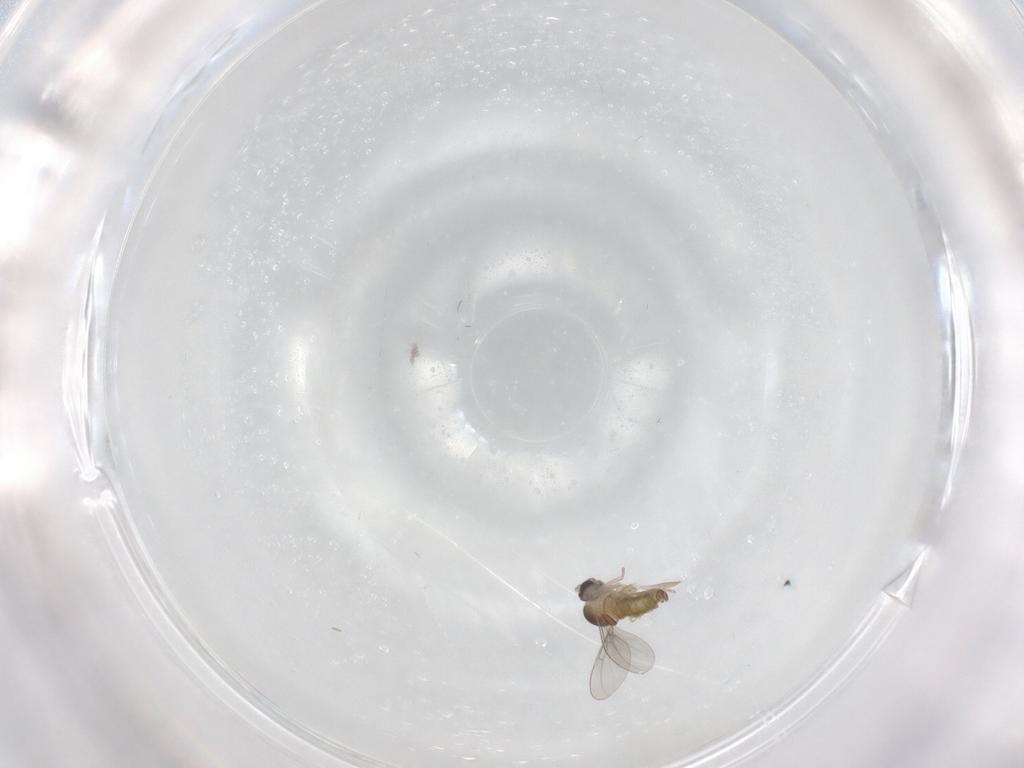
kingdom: Animalia
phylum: Arthropoda
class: Insecta
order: Diptera
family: Cecidomyiidae
